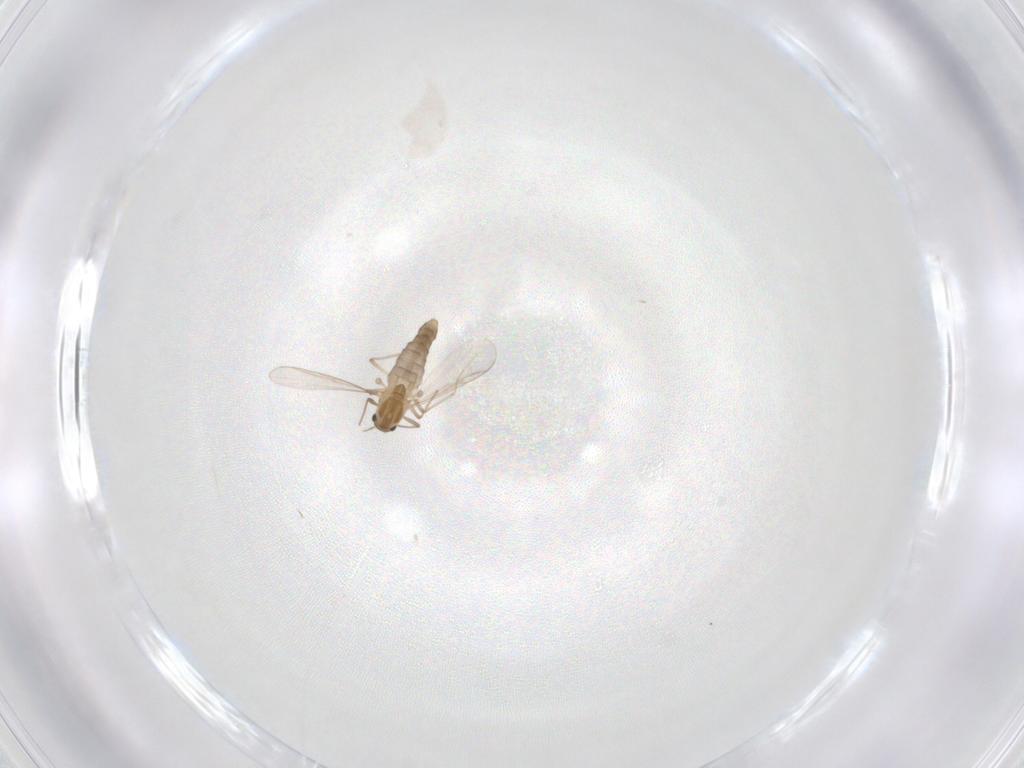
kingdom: Animalia
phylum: Arthropoda
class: Insecta
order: Diptera
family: Chironomidae
